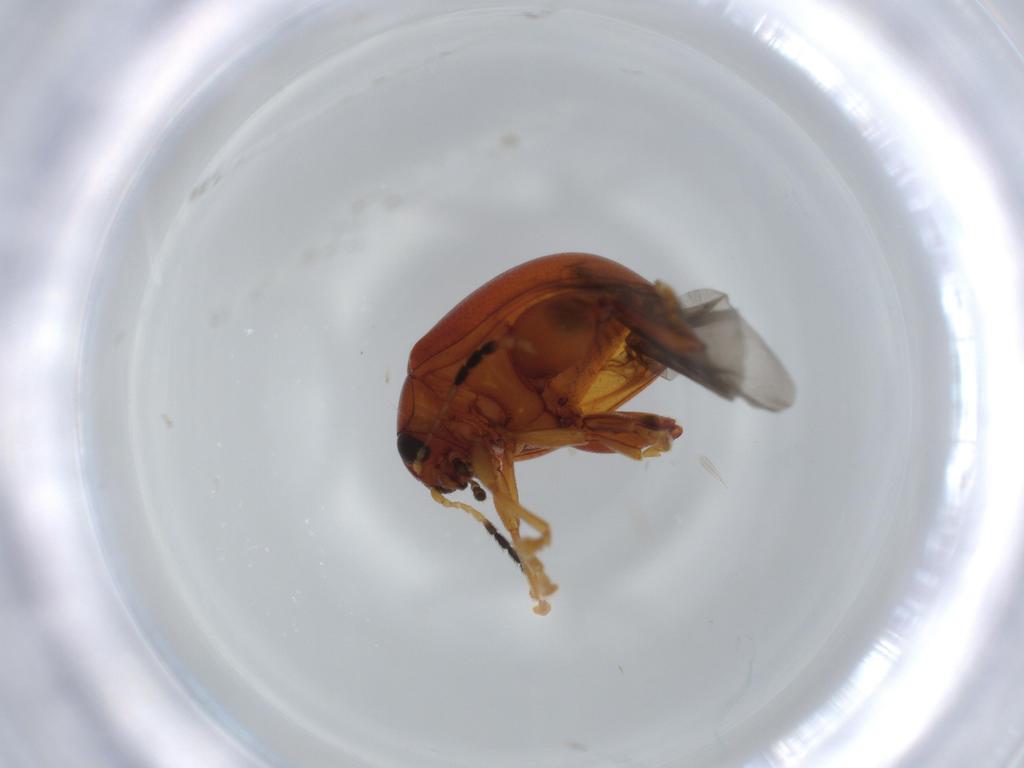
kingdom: Animalia
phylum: Arthropoda
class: Insecta
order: Coleoptera
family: Chrysomelidae
